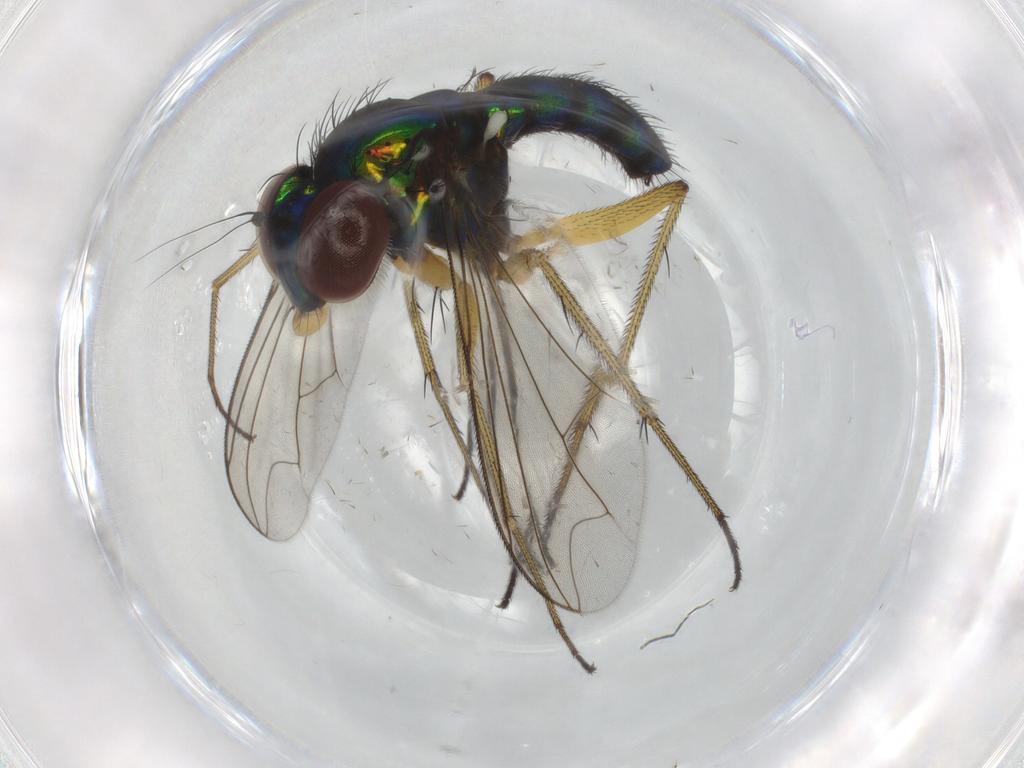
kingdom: Animalia
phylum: Arthropoda
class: Insecta
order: Diptera
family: Dolichopodidae
